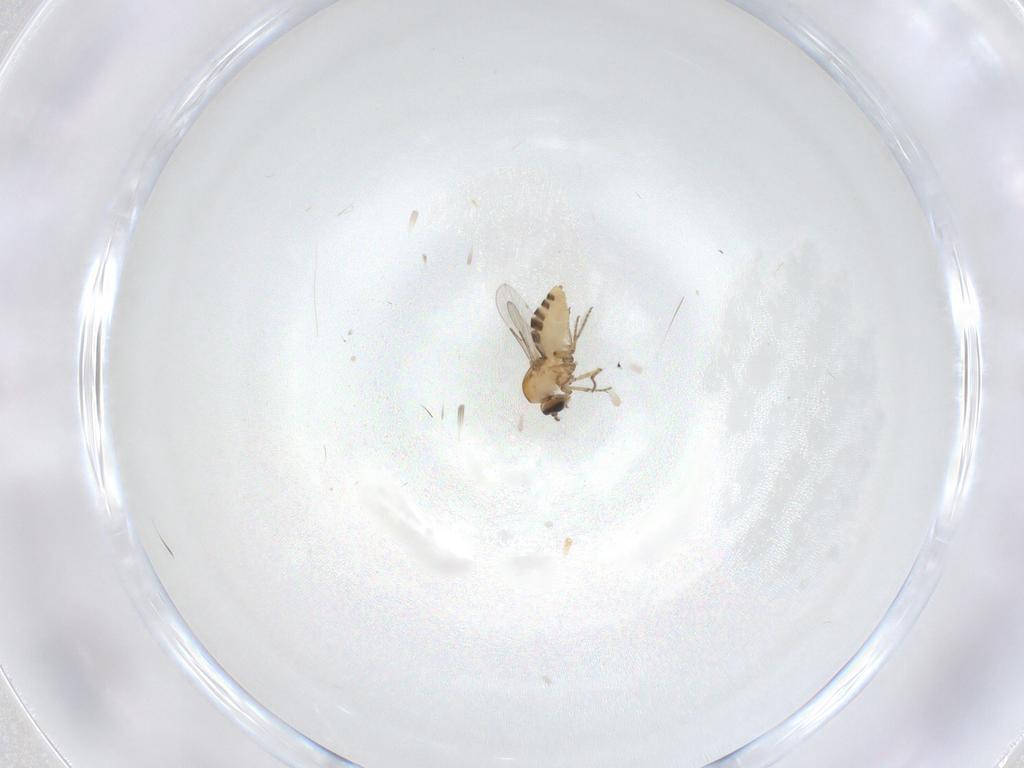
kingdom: Animalia
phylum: Arthropoda
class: Insecta
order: Diptera
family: Ceratopogonidae
